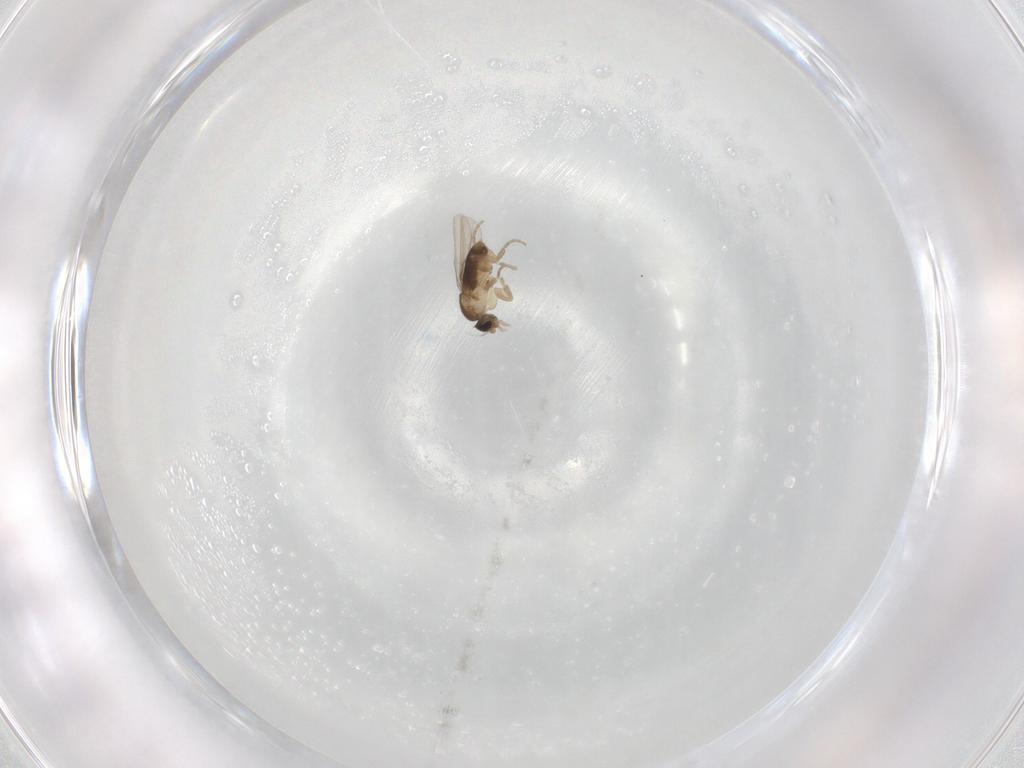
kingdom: Animalia
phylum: Arthropoda
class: Insecta
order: Diptera
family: Phoridae
